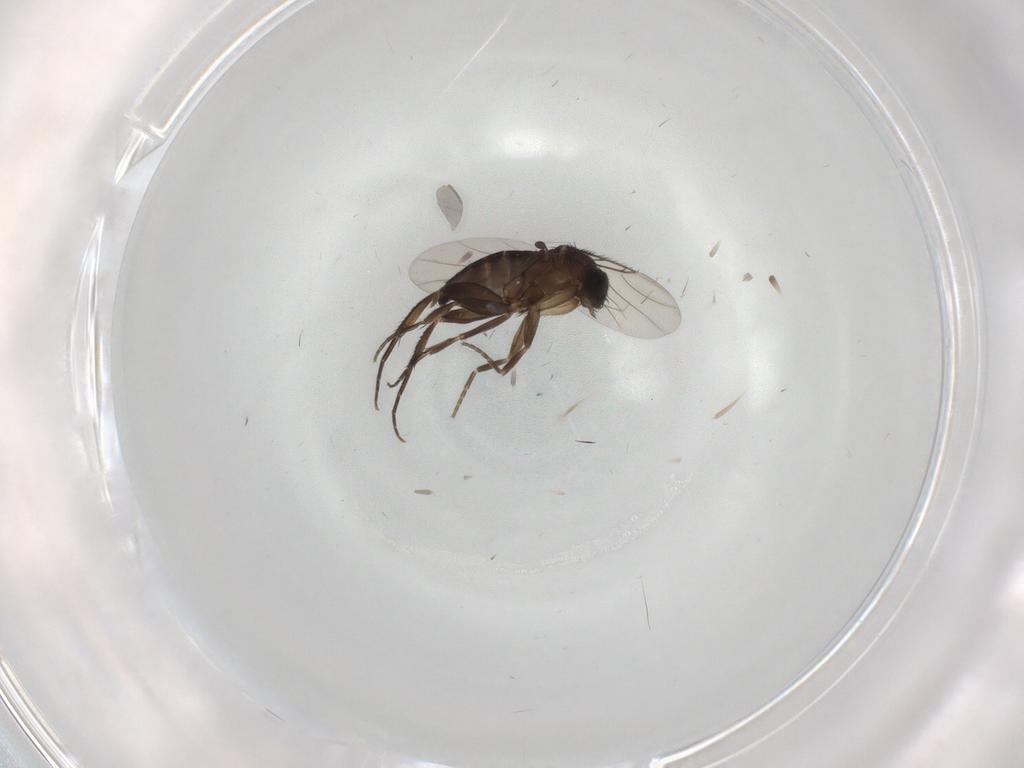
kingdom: Animalia
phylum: Arthropoda
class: Insecta
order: Diptera
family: Phoridae
